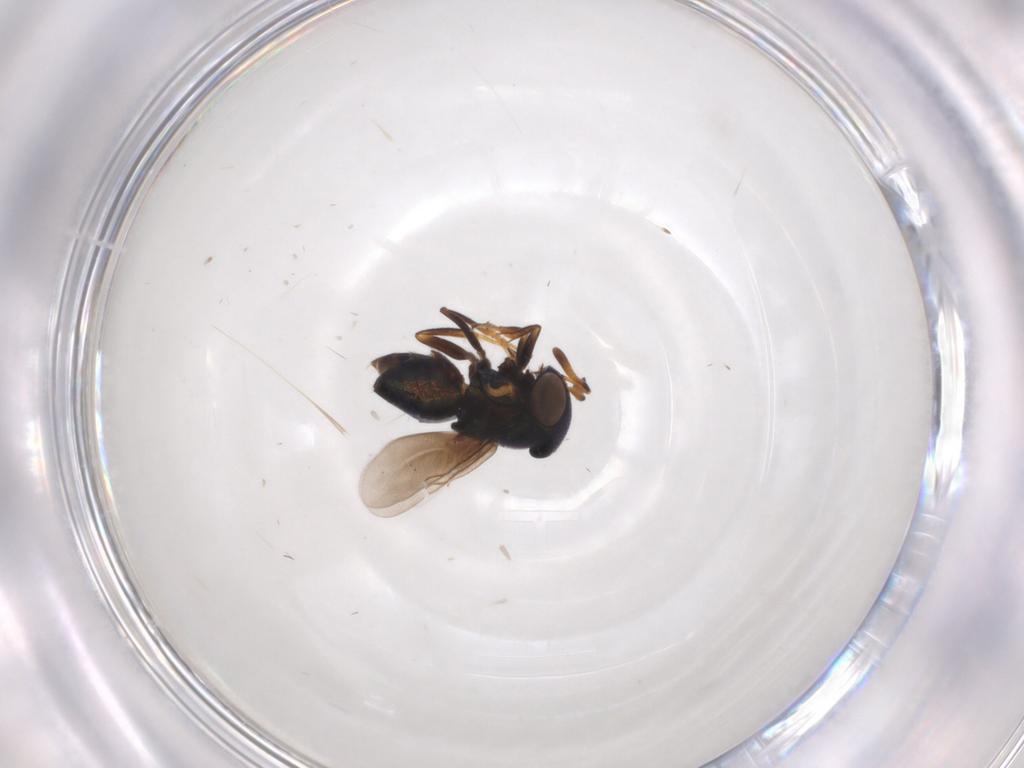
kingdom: Animalia
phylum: Arthropoda
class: Insecta
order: Hymenoptera
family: Encyrtidae
